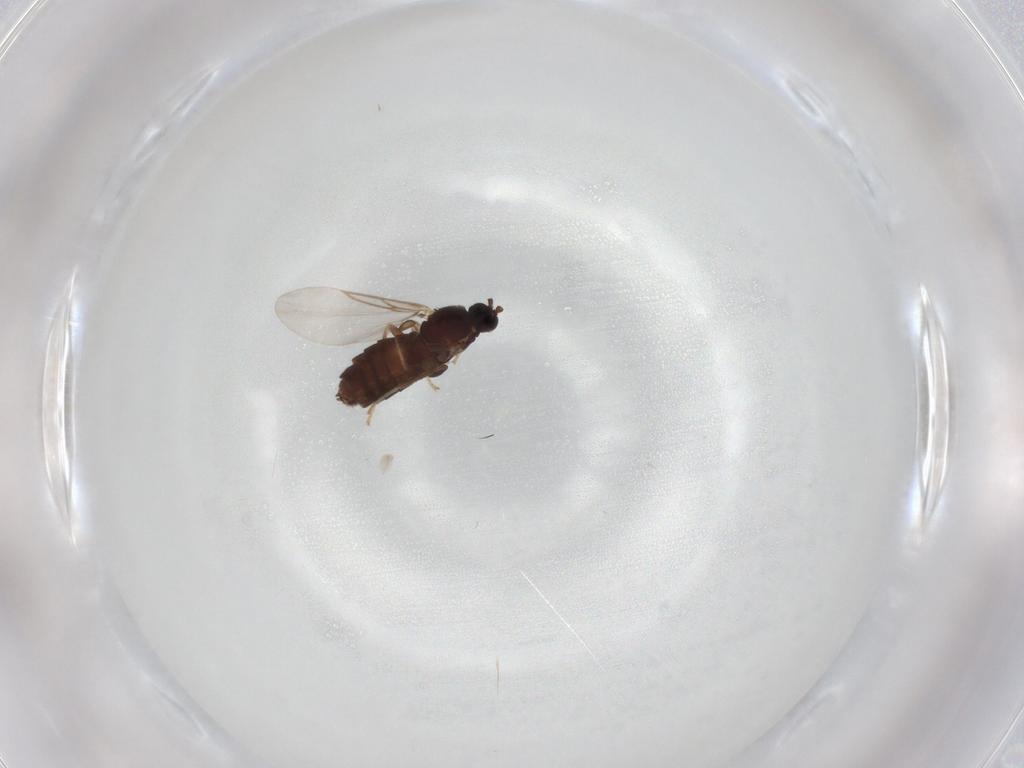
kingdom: Animalia
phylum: Arthropoda
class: Insecta
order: Diptera
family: Hybotidae
